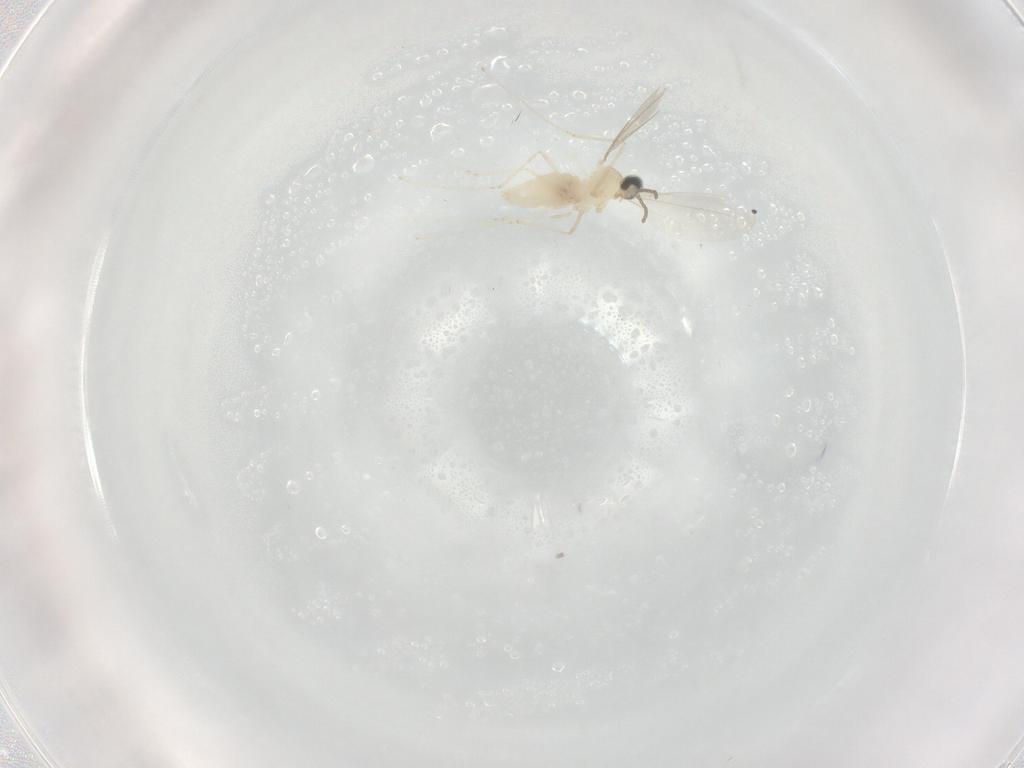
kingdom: Animalia
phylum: Arthropoda
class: Insecta
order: Diptera
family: Cecidomyiidae
